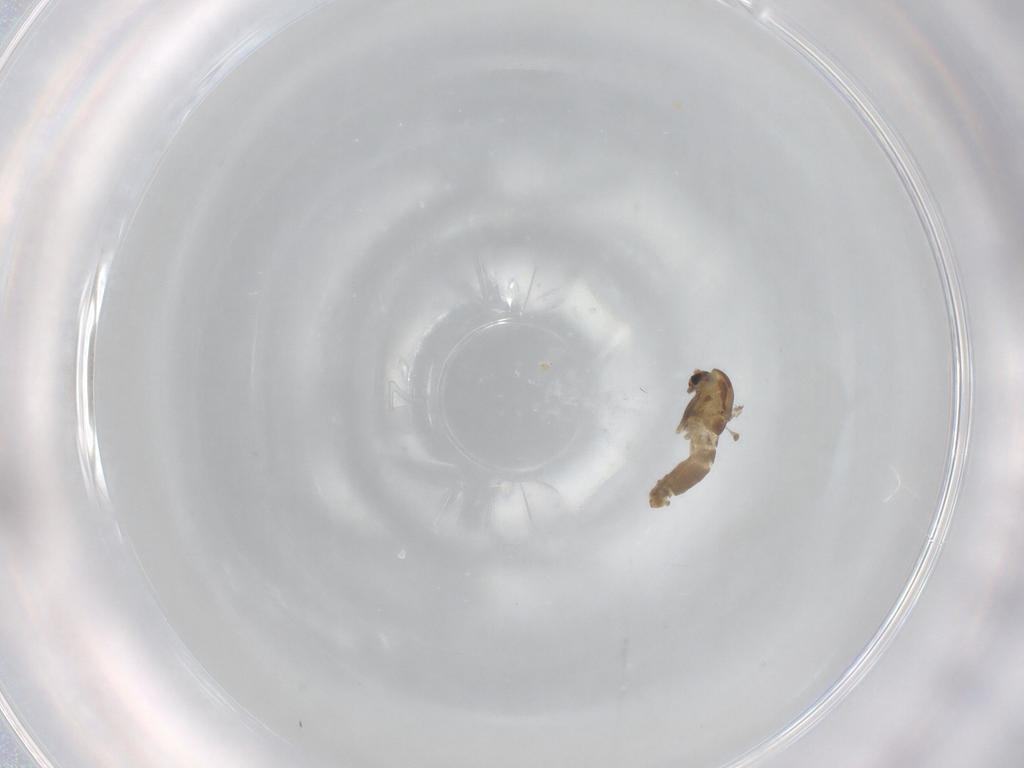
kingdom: Animalia
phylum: Arthropoda
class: Insecta
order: Diptera
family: Chironomidae
